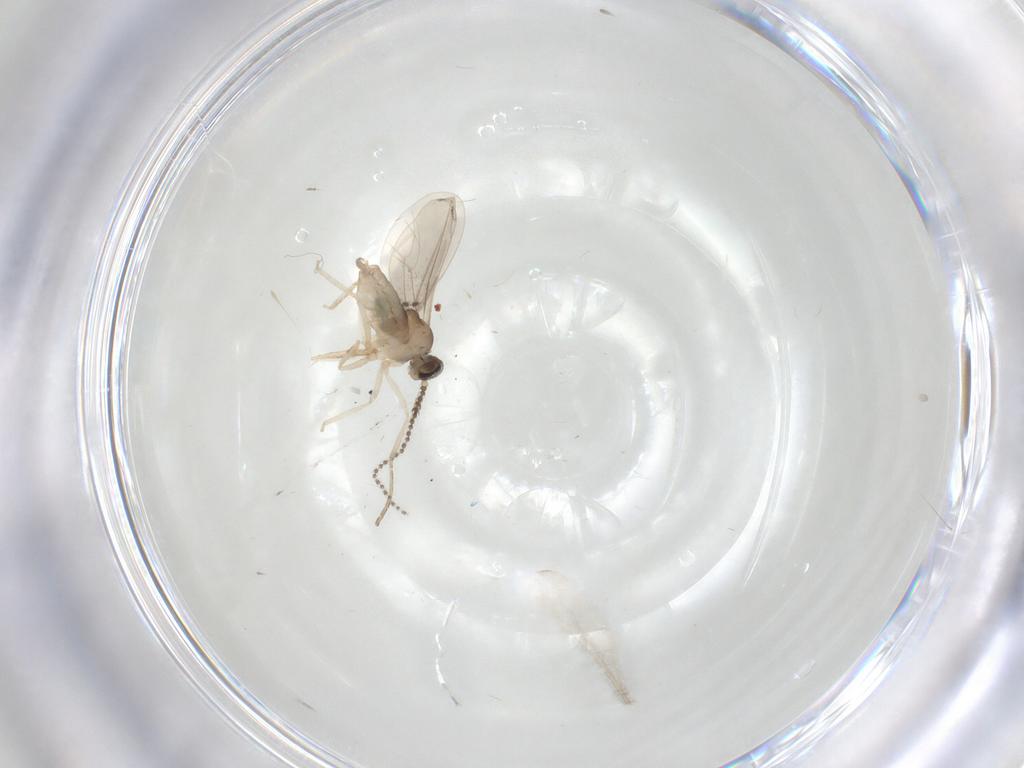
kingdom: Animalia
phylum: Arthropoda
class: Insecta
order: Diptera
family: Cecidomyiidae
